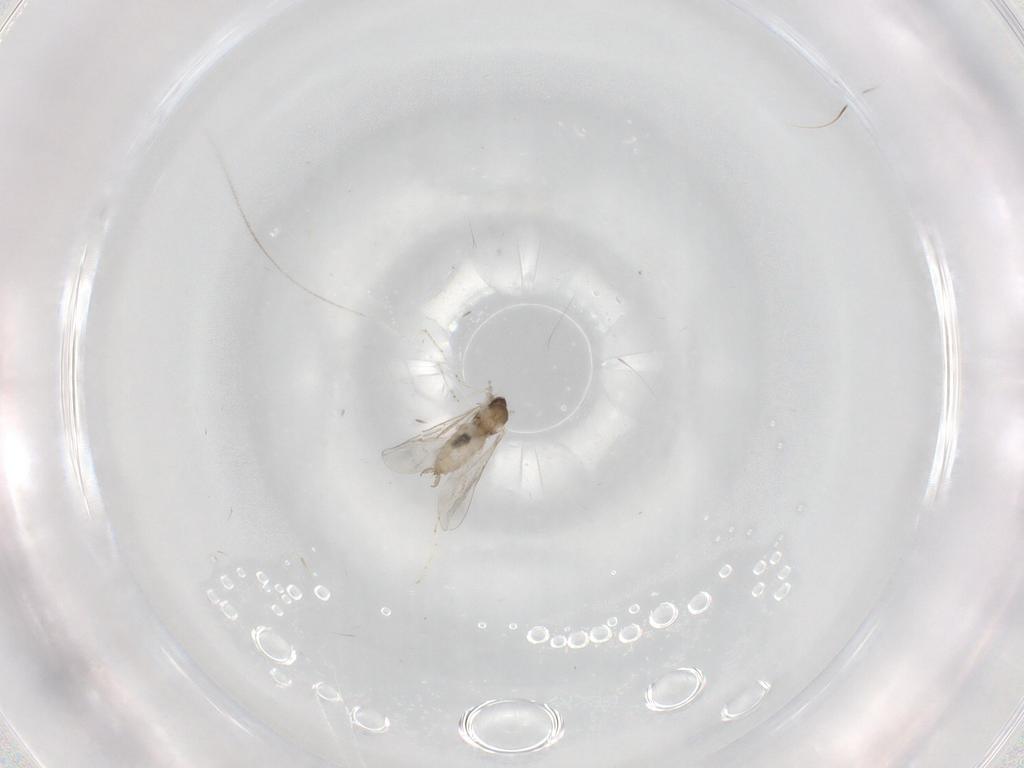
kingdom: Animalia
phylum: Arthropoda
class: Insecta
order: Diptera
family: Cecidomyiidae
